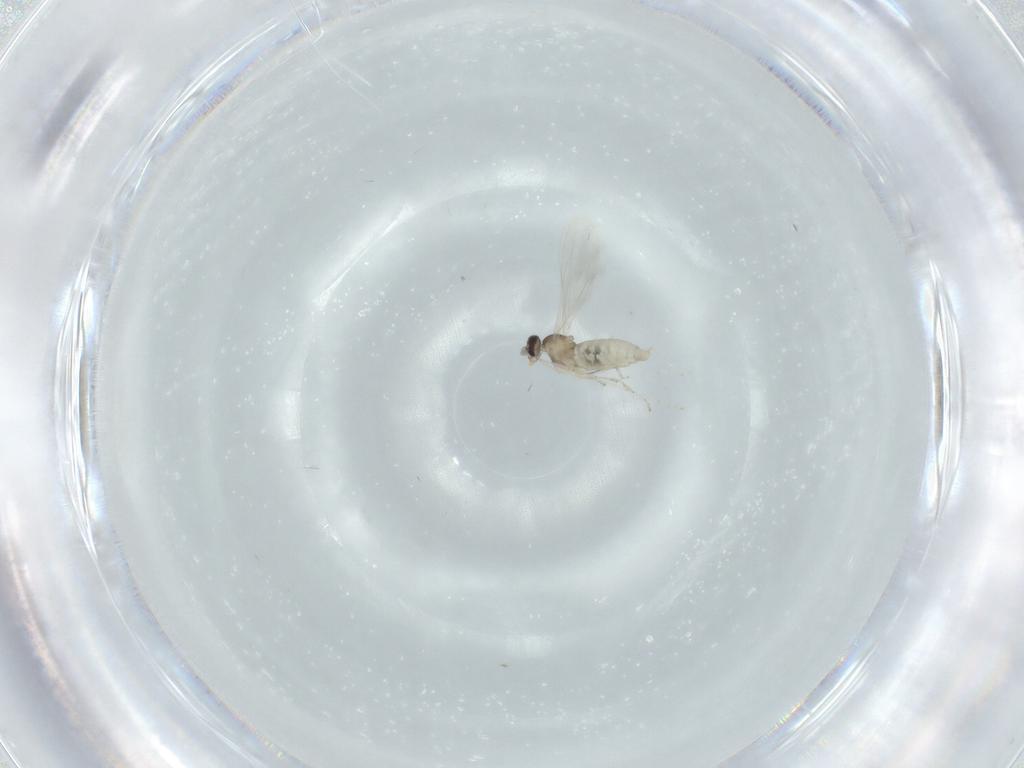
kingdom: Animalia
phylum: Arthropoda
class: Insecta
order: Diptera
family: Cecidomyiidae
